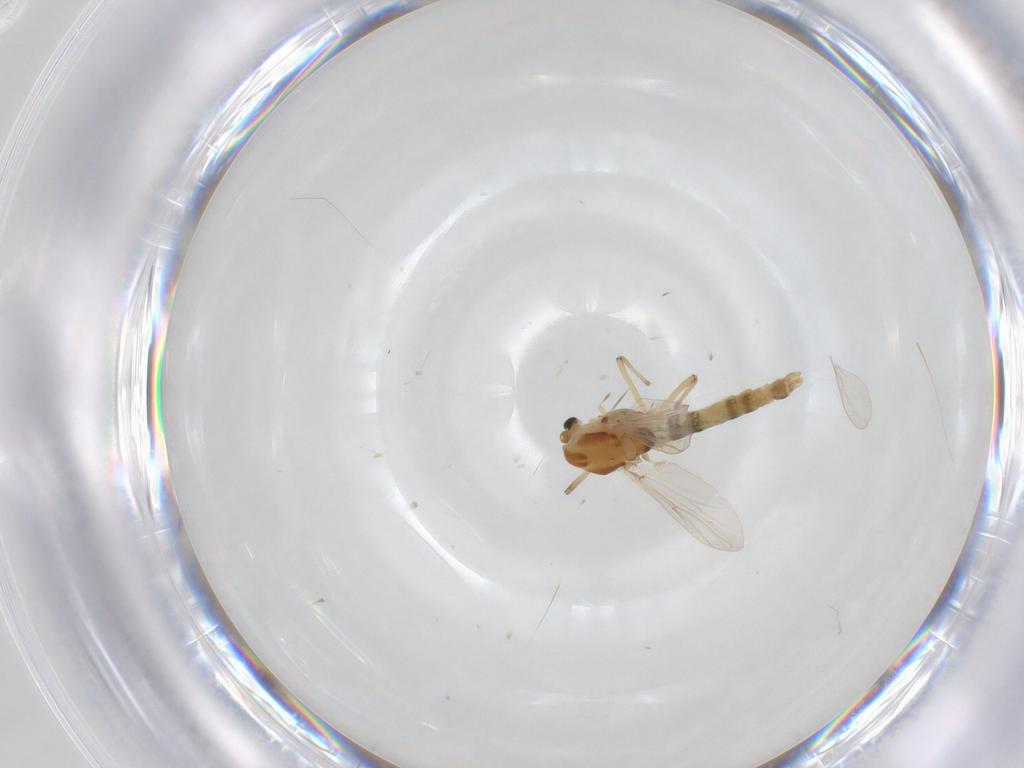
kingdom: Animalia
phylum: Arthropoda
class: Insecta
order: Diptera
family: Chironomidae
